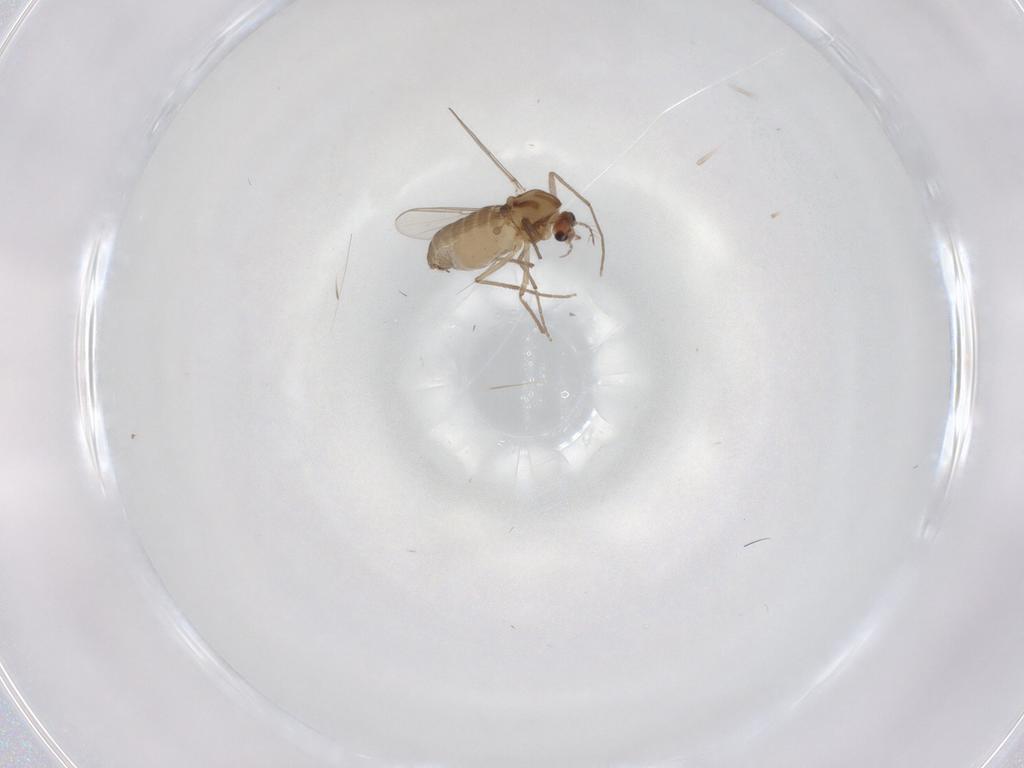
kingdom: Animalia
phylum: Arthropoda
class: Insecta
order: Diptera
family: Chironomidae
